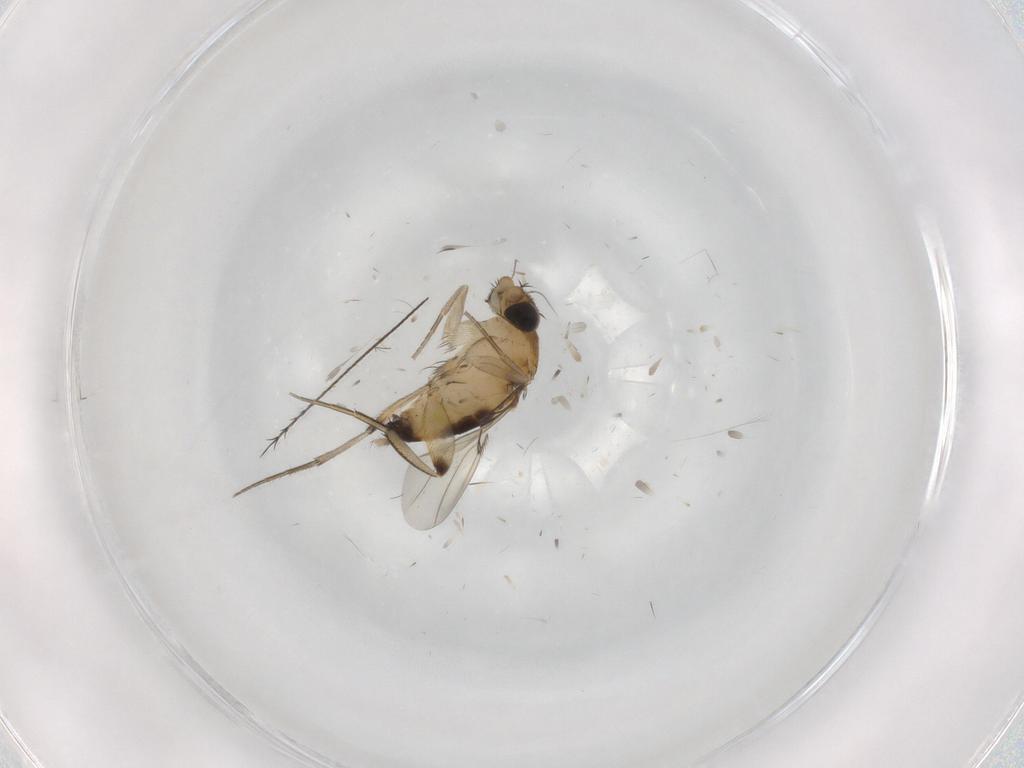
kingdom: Animalia
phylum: Arthropoda
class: Insecta
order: Diptera
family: Phoridae
